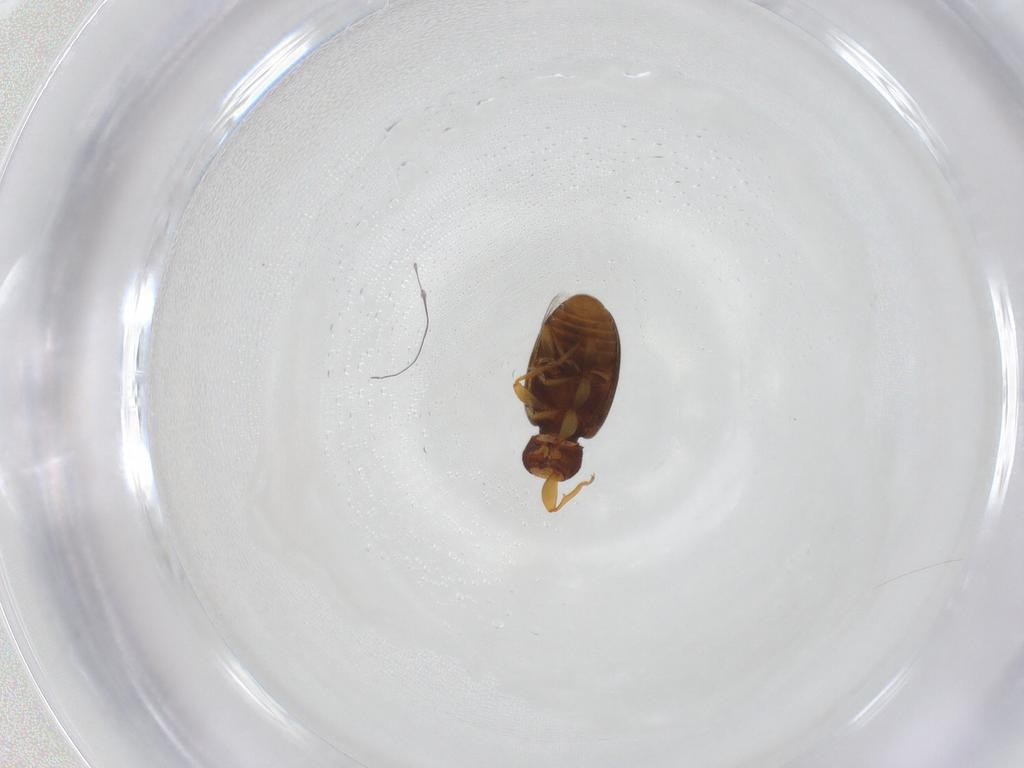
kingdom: Animalia
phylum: Arthropoda
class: Insecta
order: Coleoptera
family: Latridiidae
